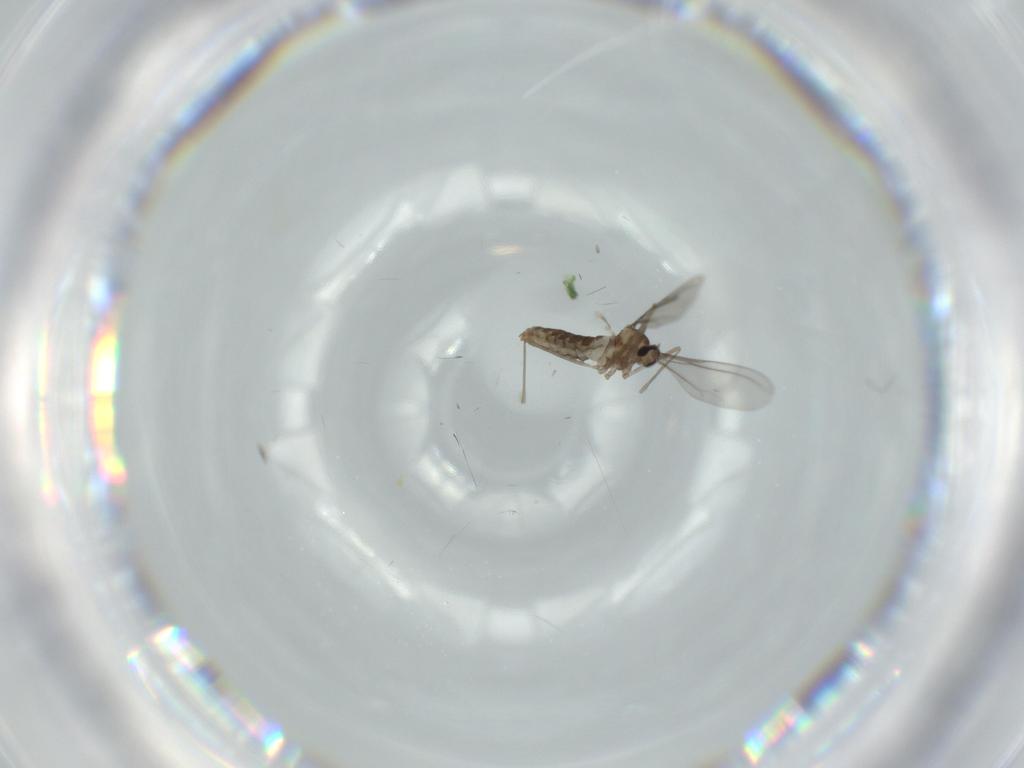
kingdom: Animalia
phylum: Arthropoda
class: Insecta
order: Diptera
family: Cecidomyiidae
